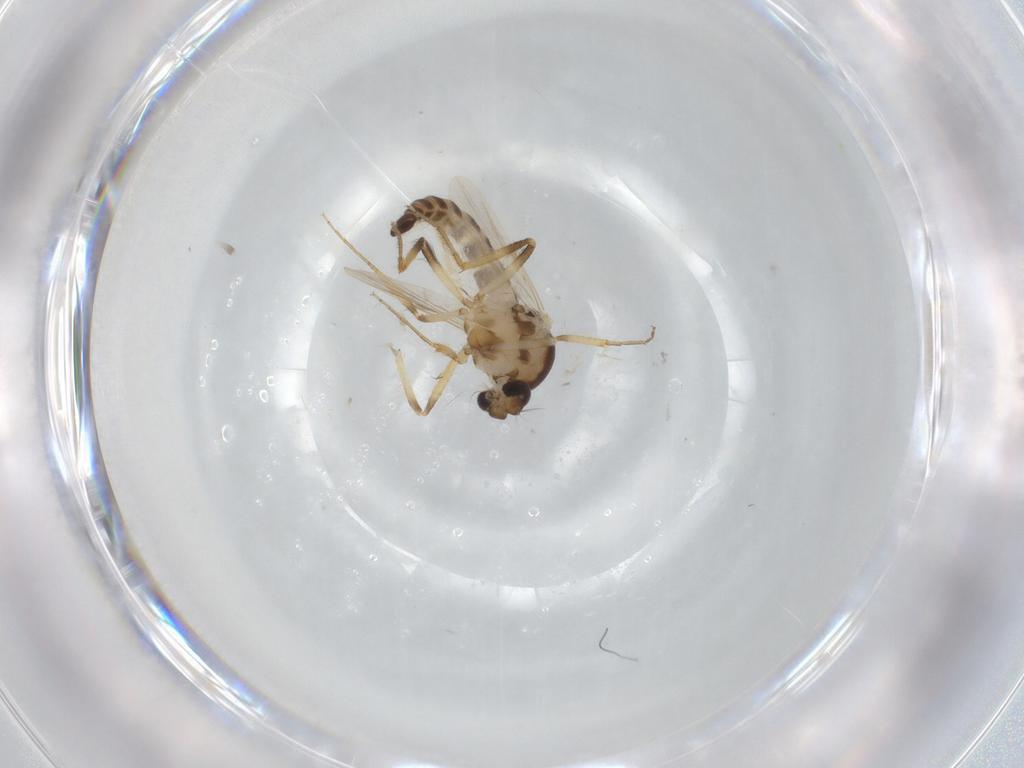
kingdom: Animalia
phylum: Arthropoda
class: Insecta
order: Diptera
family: Ceratopogonidae
